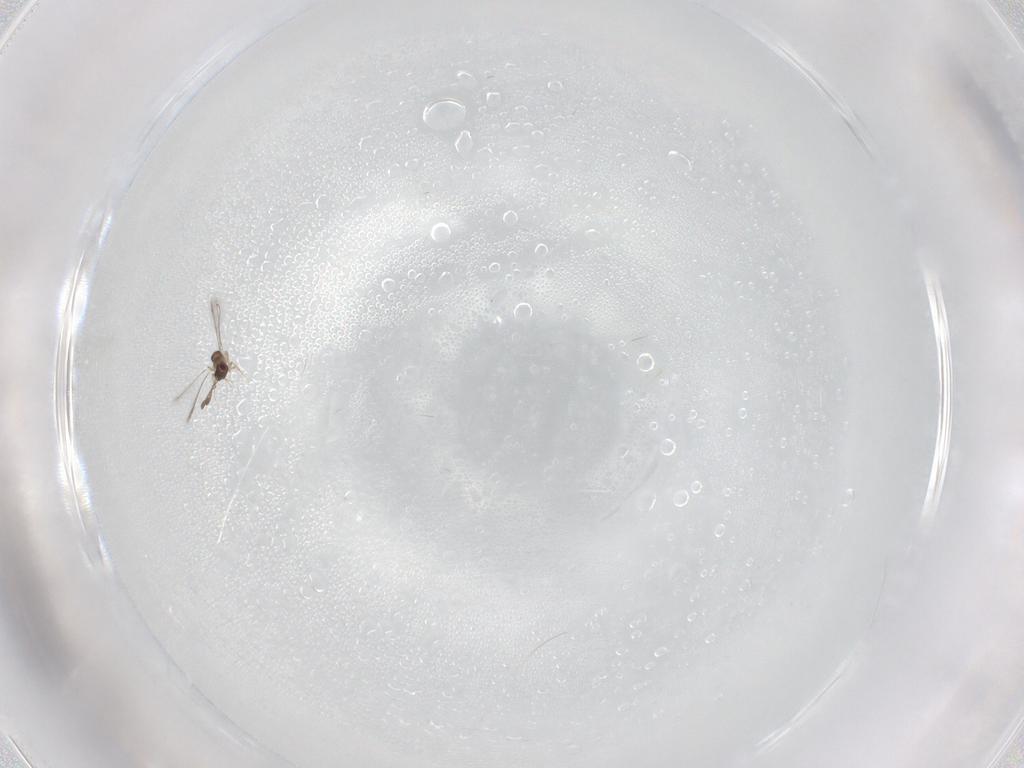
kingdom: Animalia
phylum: Arthropoda
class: Insecta
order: Hymenoptera
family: Mymaridae
